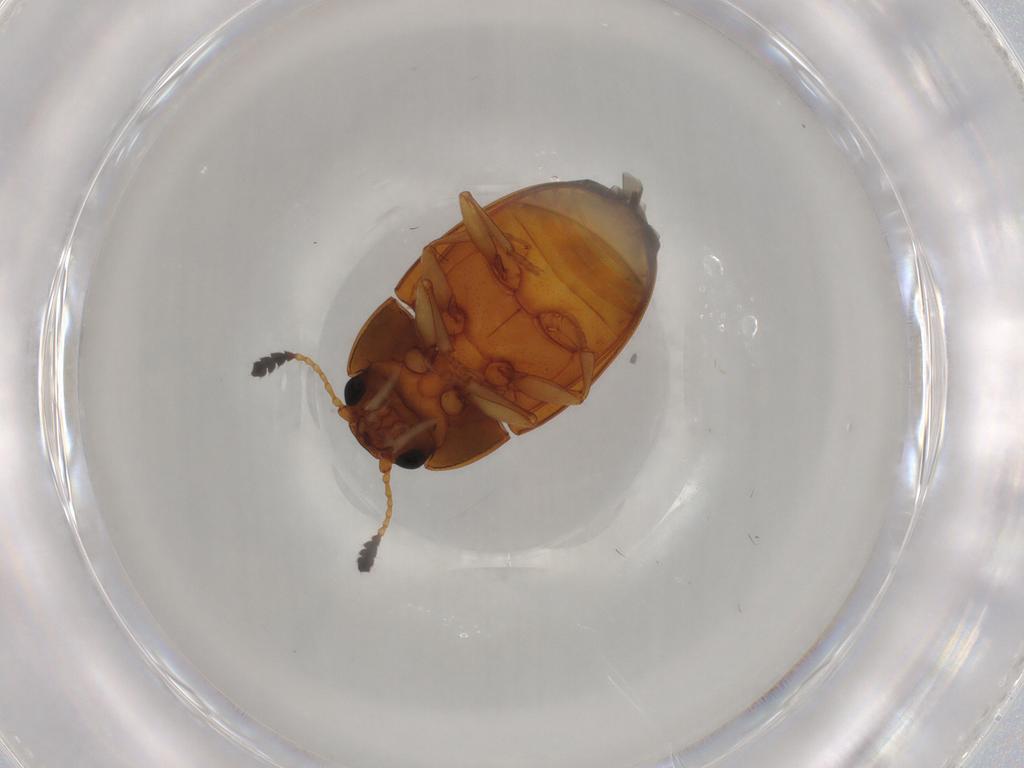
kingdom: Animalia
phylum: Arthropoda
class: Insecta
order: Coleoptera
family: Erotylidae
